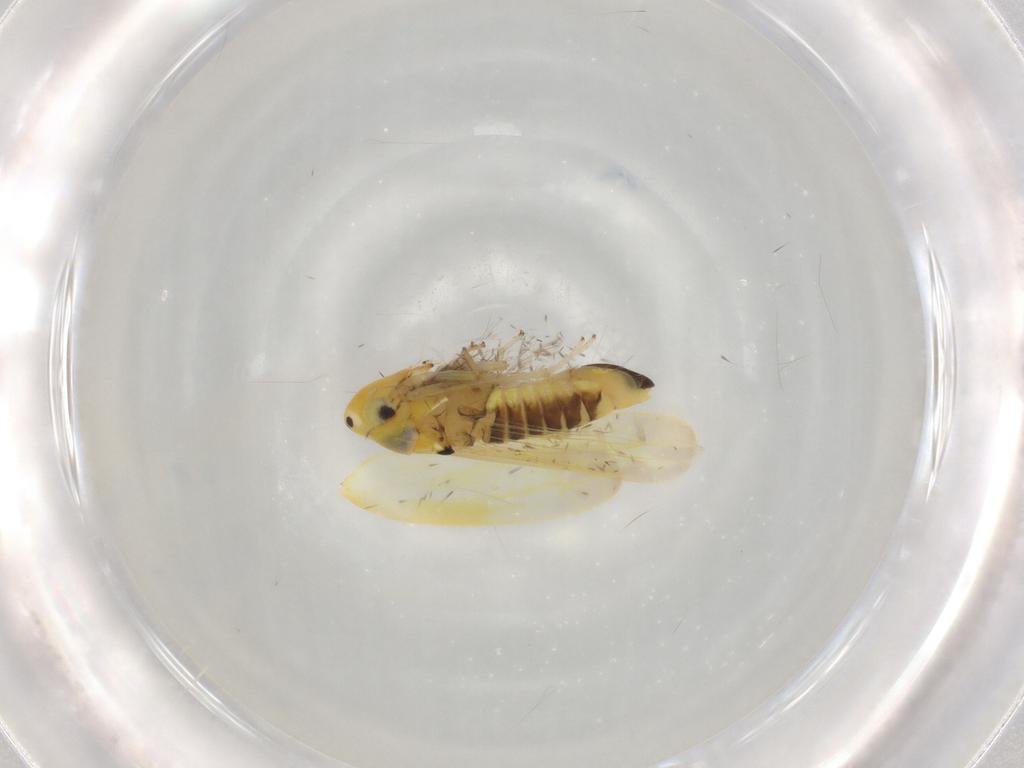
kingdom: Animalia
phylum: Arthropoda
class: Insecta
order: Hemiptera
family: Cicadellidae
